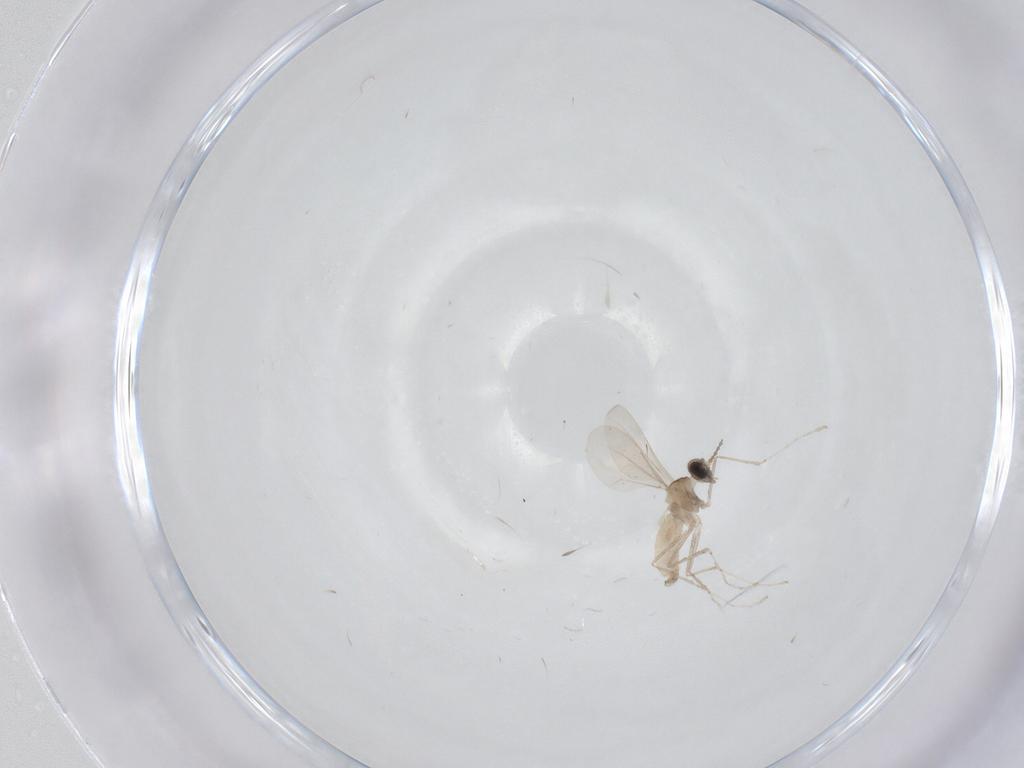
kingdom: Animalia
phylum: Arthropoda
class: Insecta
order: Diptera
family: Cecidomyiidae
